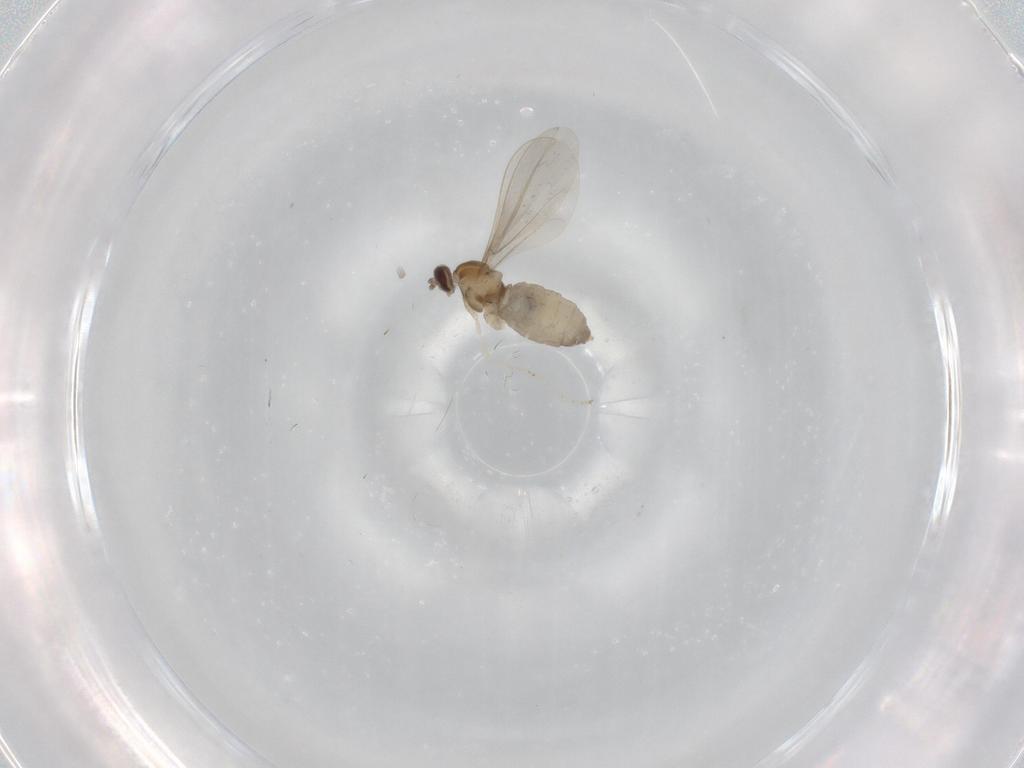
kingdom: Animalia
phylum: Arthropoda
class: Insecta
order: Diptera
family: Cecidomyiidae
